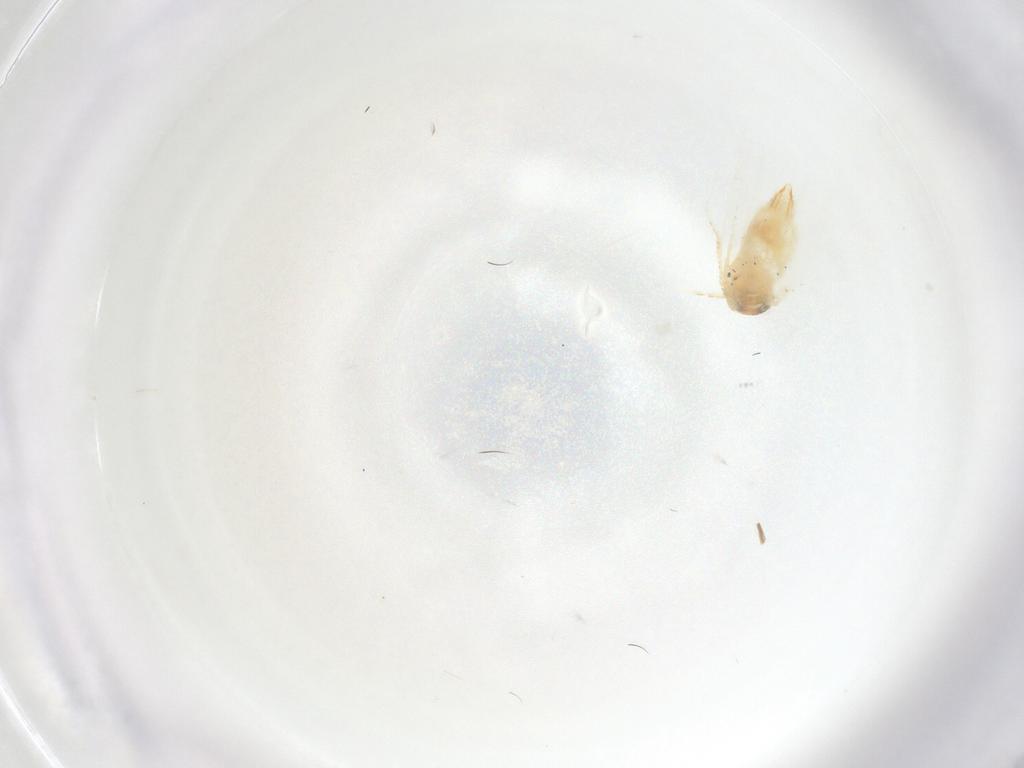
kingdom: Animalia
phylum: Arthropoda
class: Insecta
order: Lepidoptera
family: Nepticulidae
